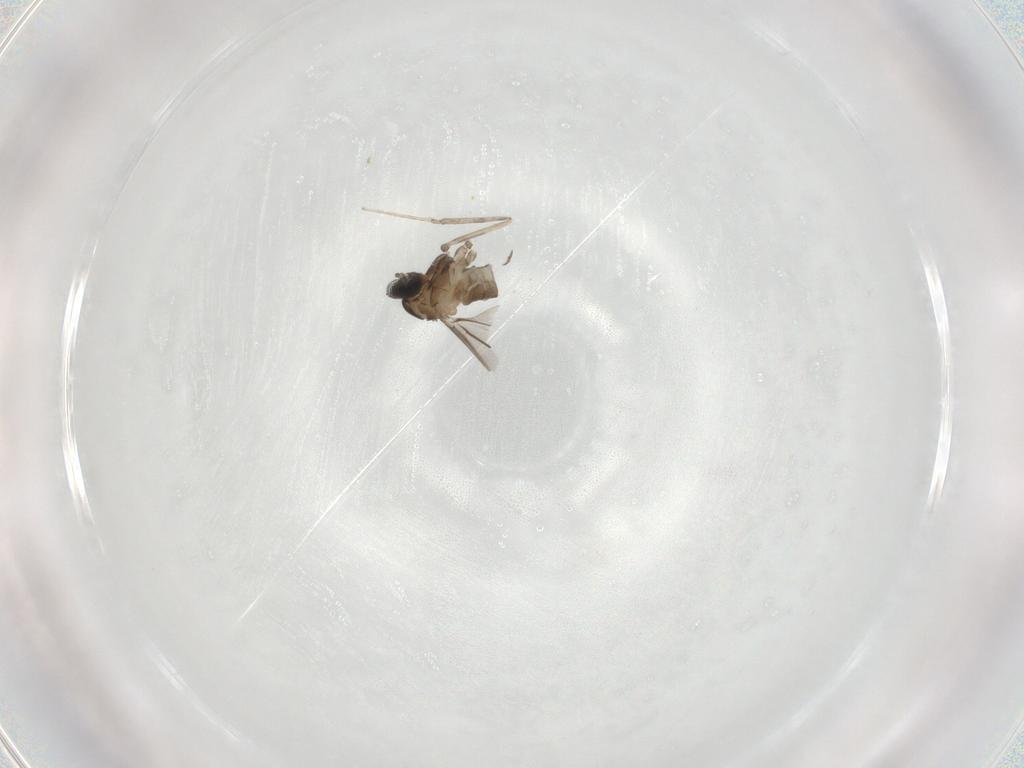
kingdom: Animalia
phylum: Arthropoda
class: Insecta
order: Diptera
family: Cecidomyiidae
